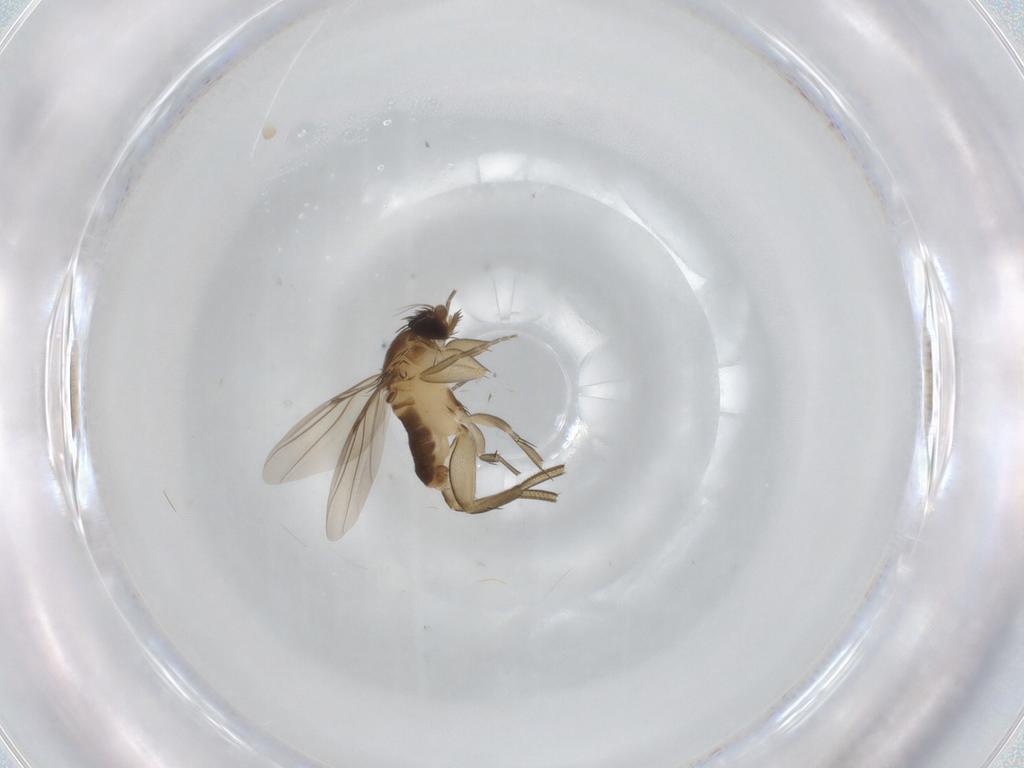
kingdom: Animalia
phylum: Arthropoda
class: Insecta
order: Diptera
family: Phoridae
